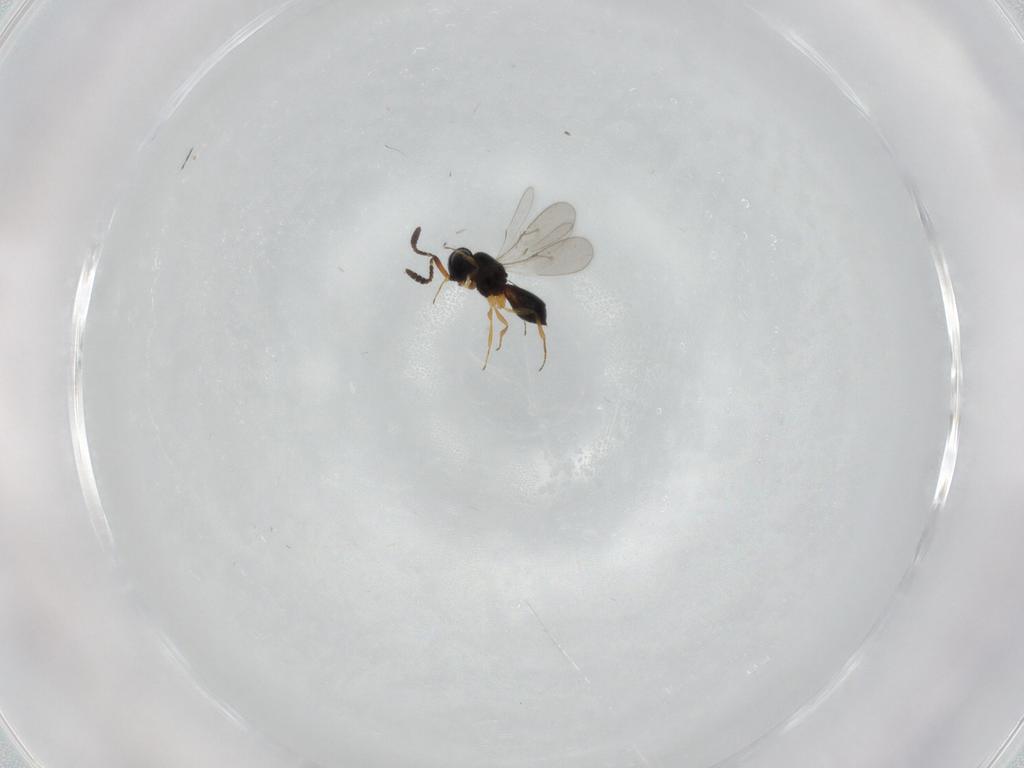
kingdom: Animalia
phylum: Arthropoda
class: Insecta
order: Hymenoptera
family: Scelionidae
